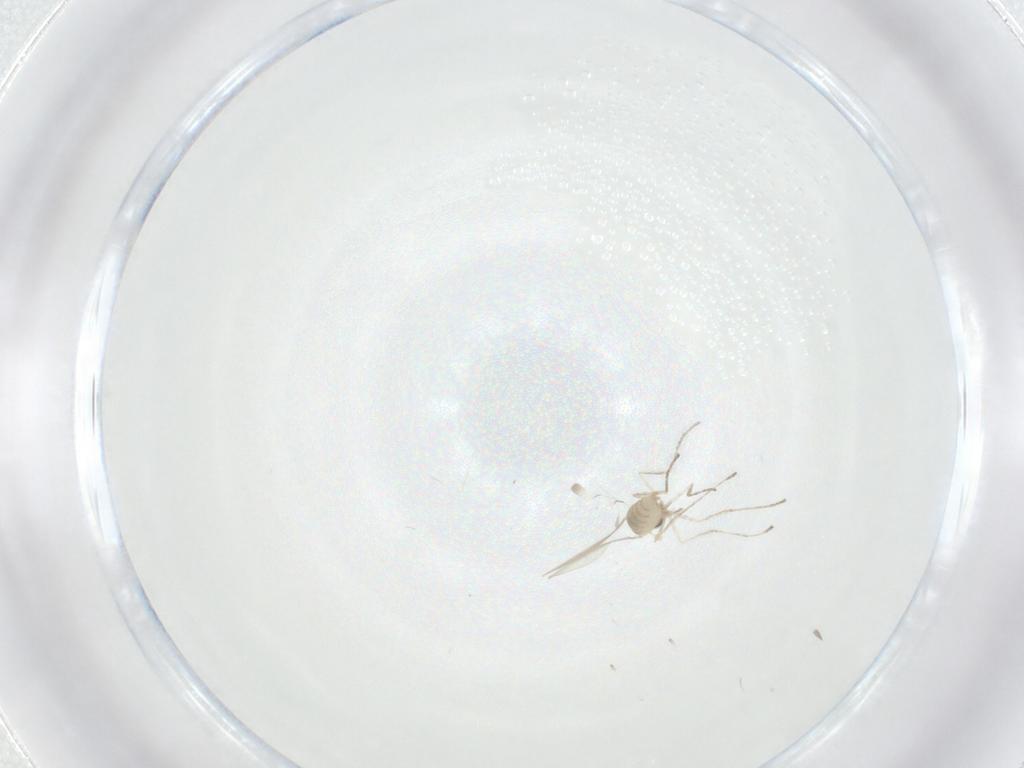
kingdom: Animalia
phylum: Arthropoda
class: Insecta
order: Diptera
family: Cecidomyiidae
